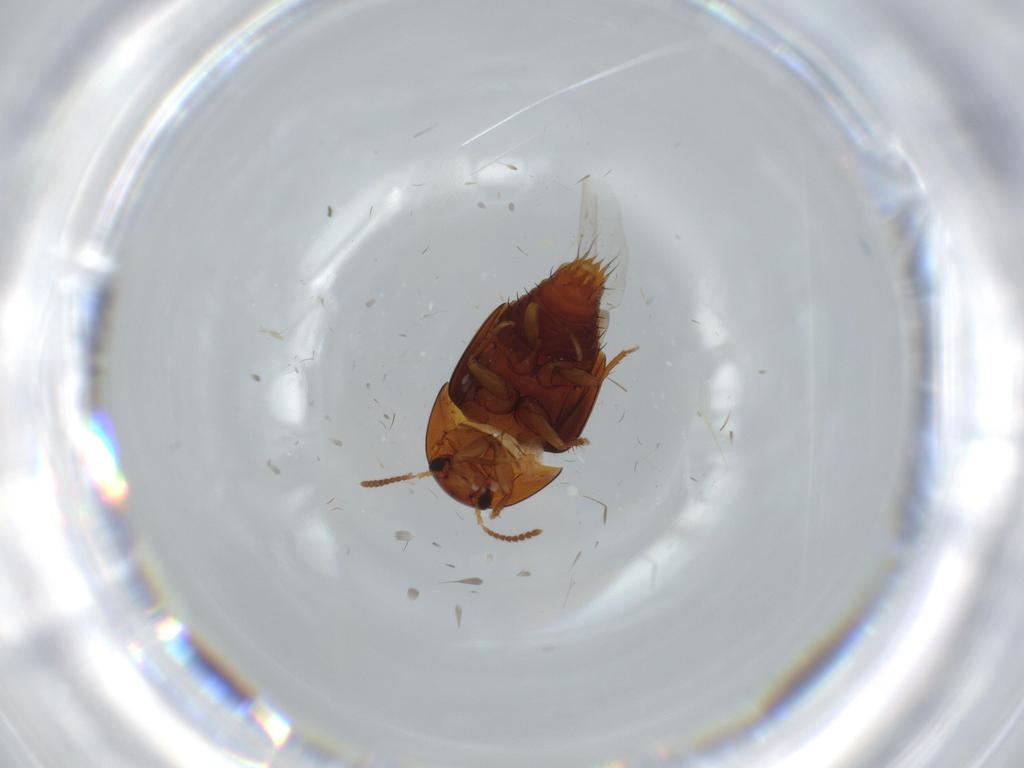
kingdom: Animalia
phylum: Arthropoda
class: Insecta
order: Coleoptera
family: Staphylinidae
